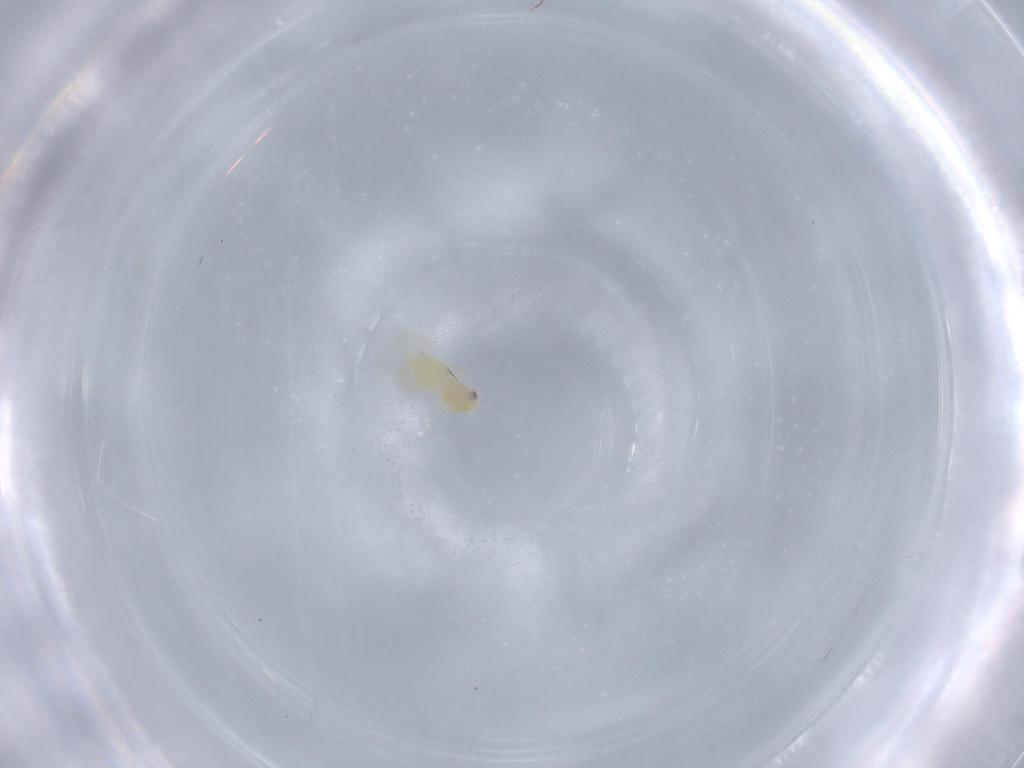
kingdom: Animalia
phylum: Arthropoda
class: Insecta
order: Hemiptera
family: Aleyrodidae
